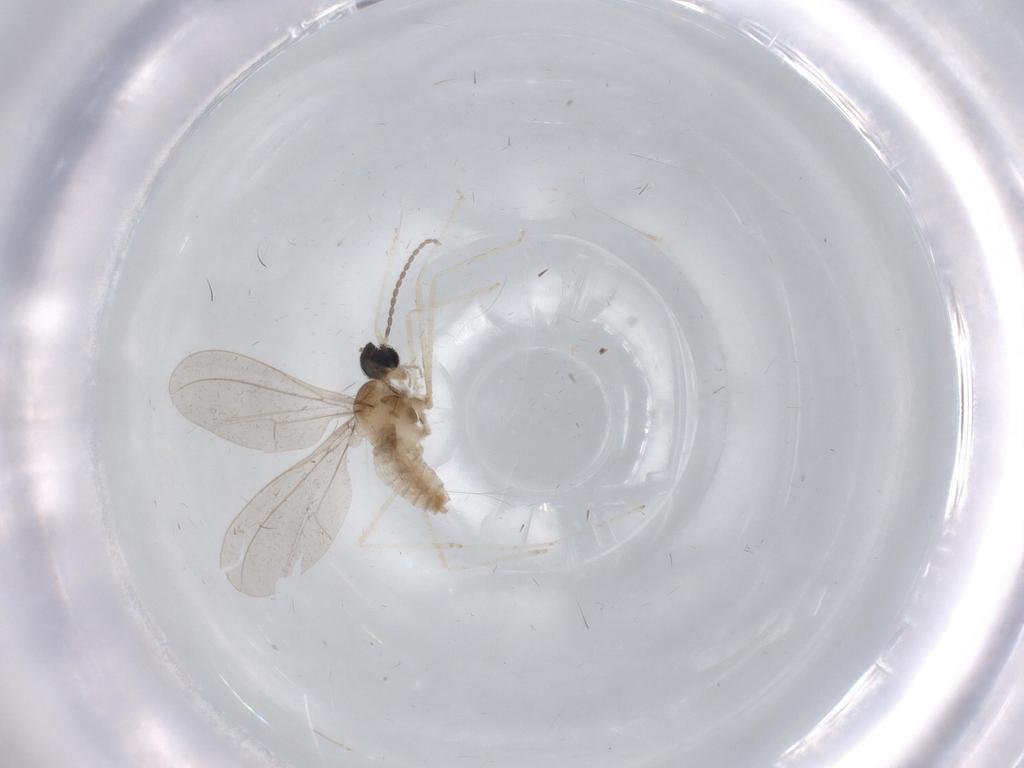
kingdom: Animalia
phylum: Arthropoda
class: Insecta
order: Diptera
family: Cecidomyiidae
